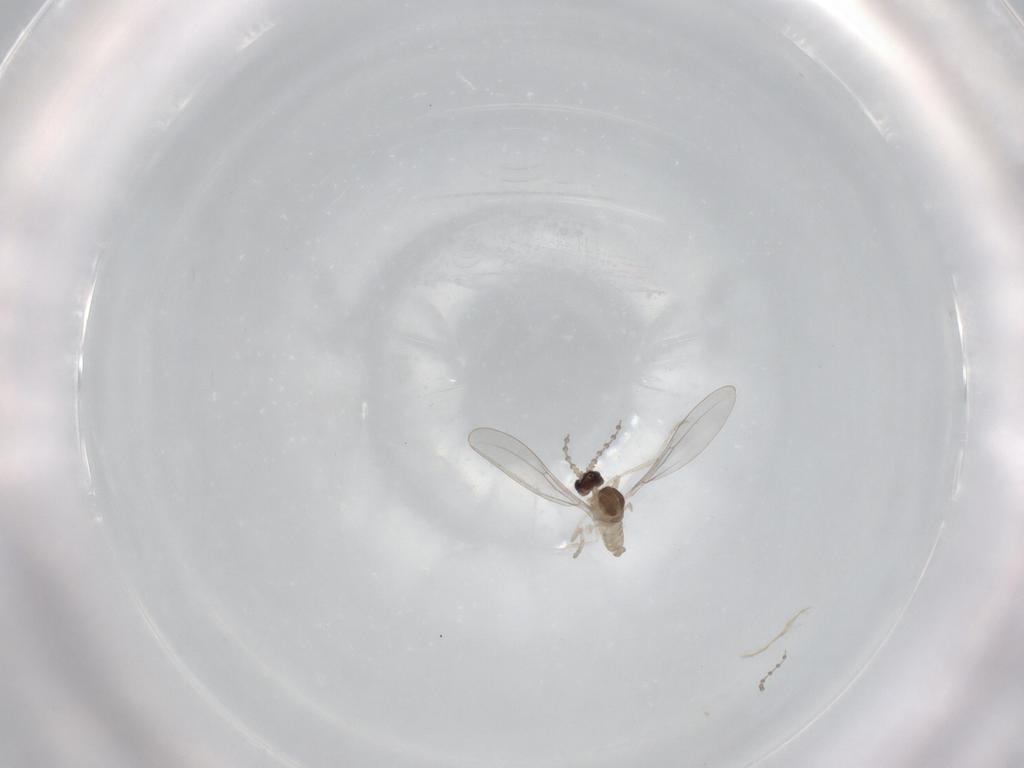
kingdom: Animalia
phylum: Arthropoda
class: Insecta
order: Diptera
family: Cecidomyiidae
